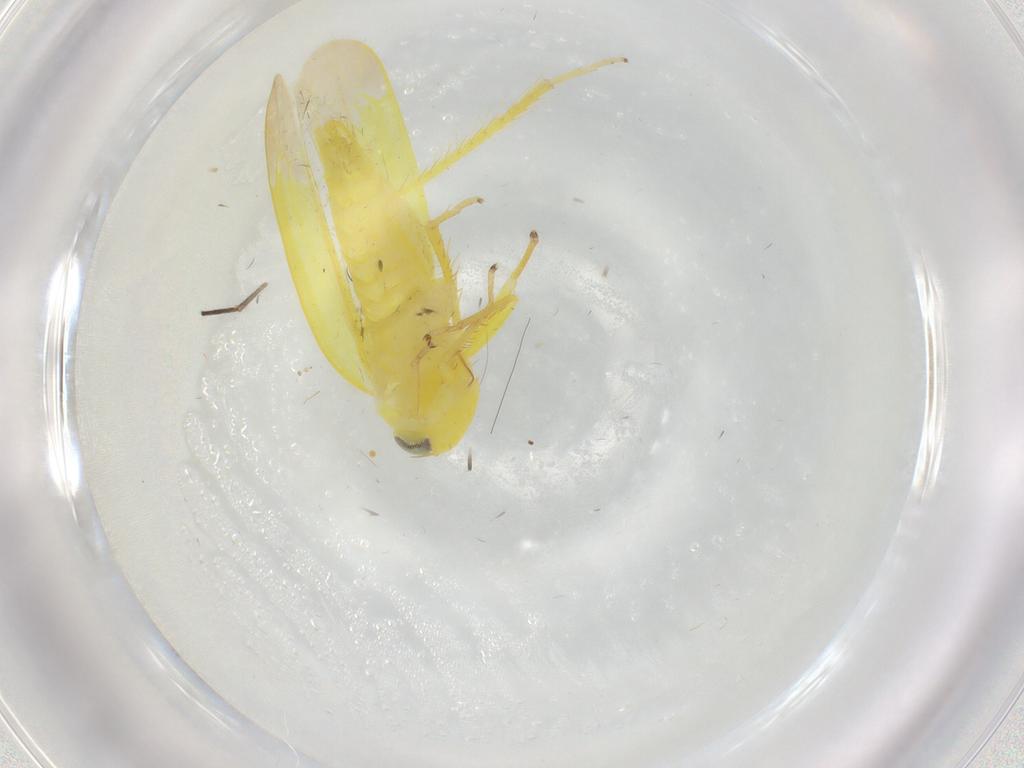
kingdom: Animalia
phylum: Arthropoda
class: Insecta
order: Hemiptera
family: Cicadellidae
